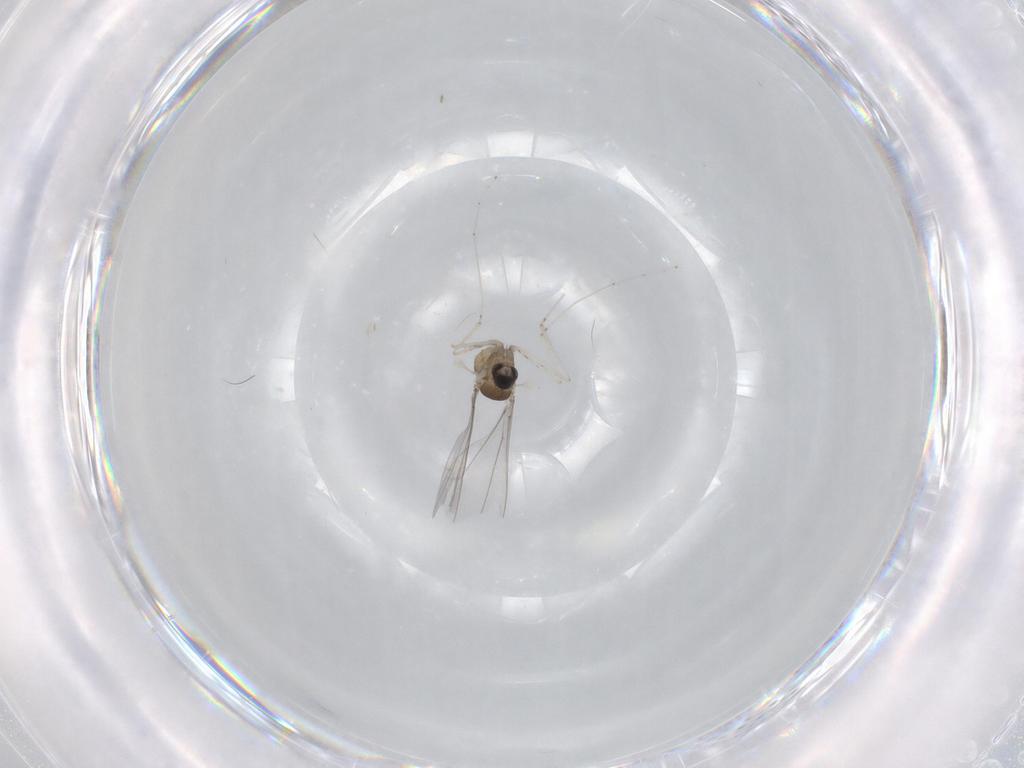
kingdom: Animalia
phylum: Arthropoda
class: Insecta
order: Diptera
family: Cecidomyiidae
